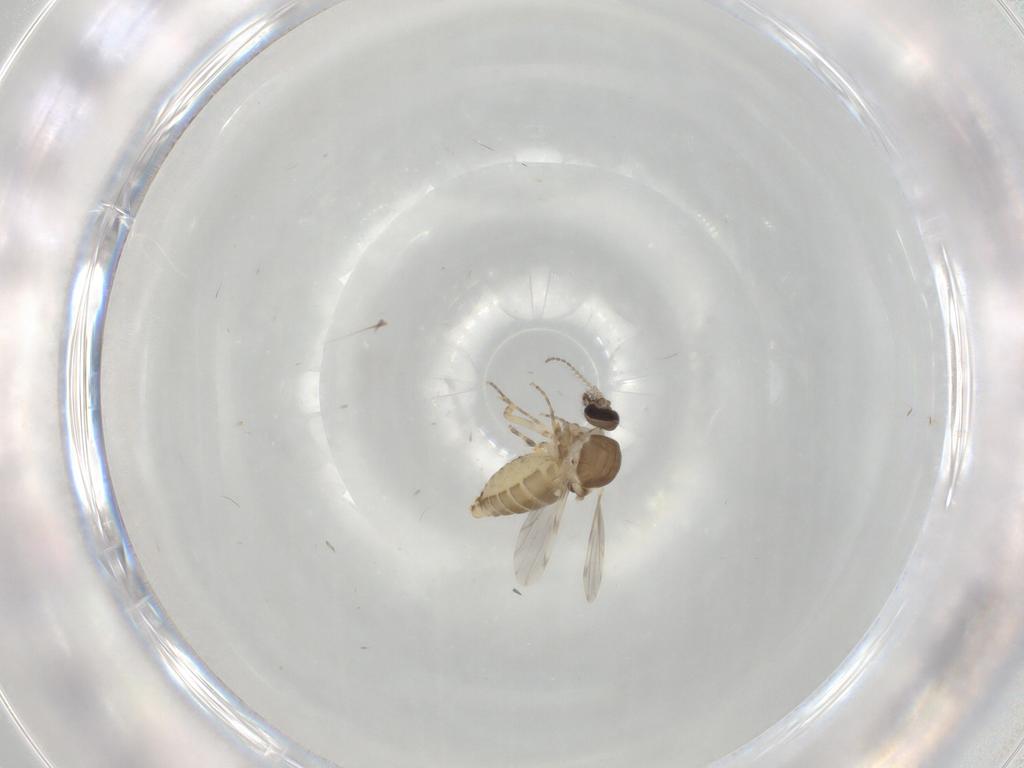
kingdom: Animalia
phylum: Arthropoda
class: Insecta
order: Diptera
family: Ceratopogonidae
